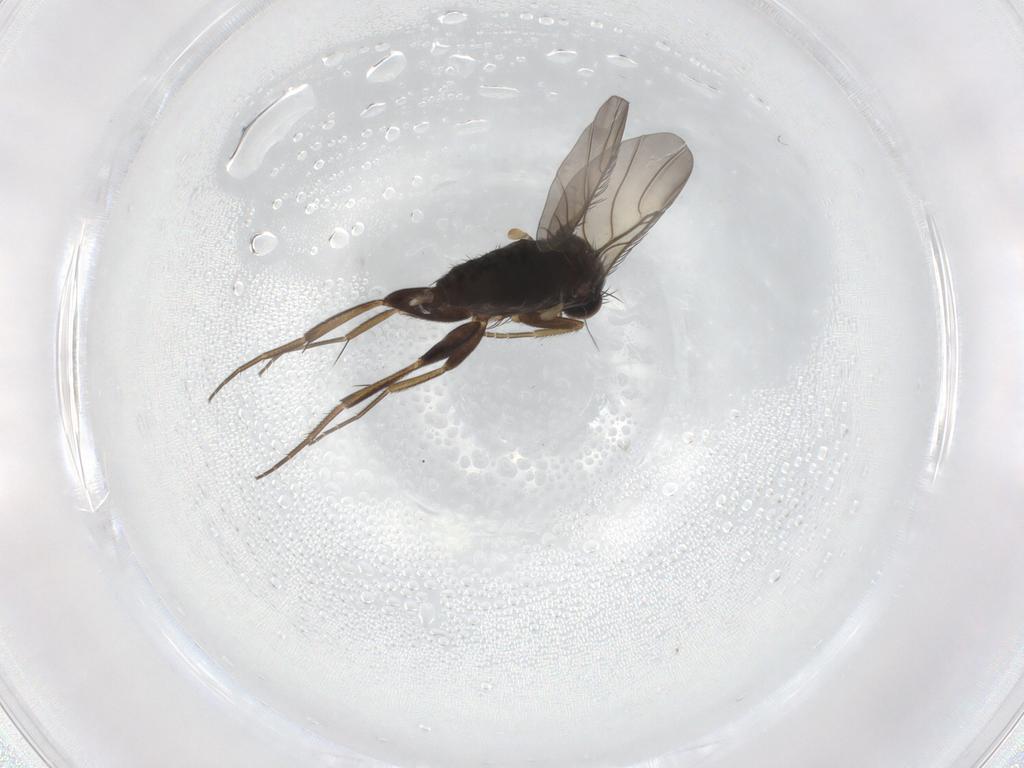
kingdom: Animalia
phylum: Arthropoda
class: Insecta
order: Diptera
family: Phoridae
